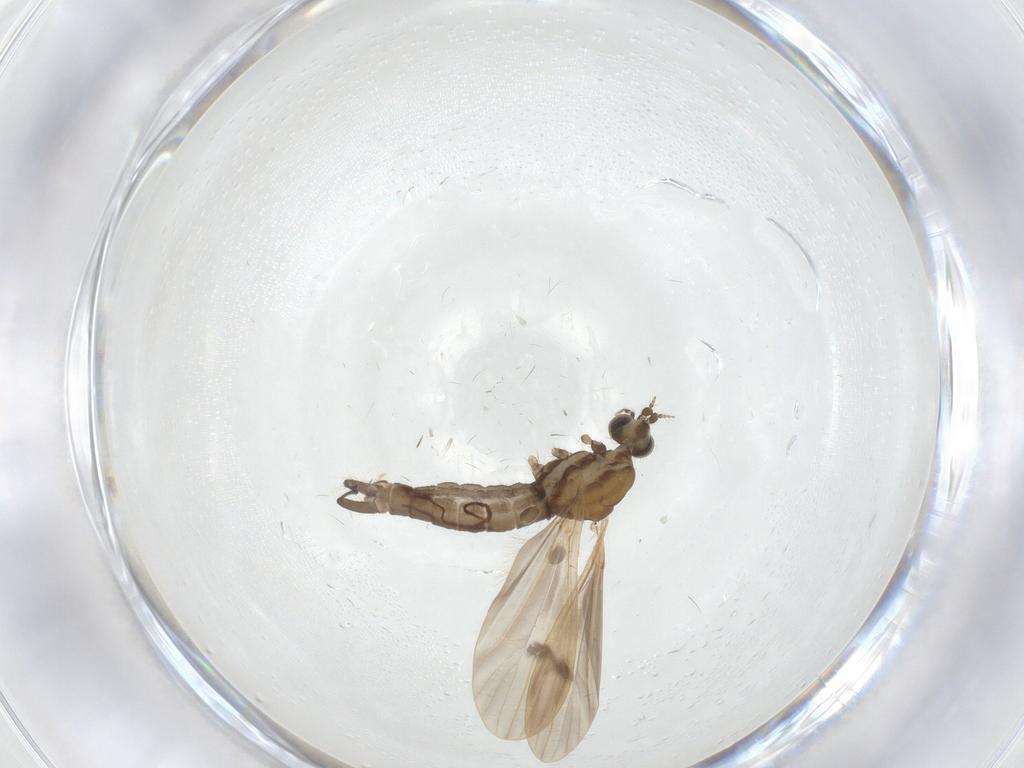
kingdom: Animalia
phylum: Arthropoda
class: Insecta
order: Diptera
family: Limoniidae
